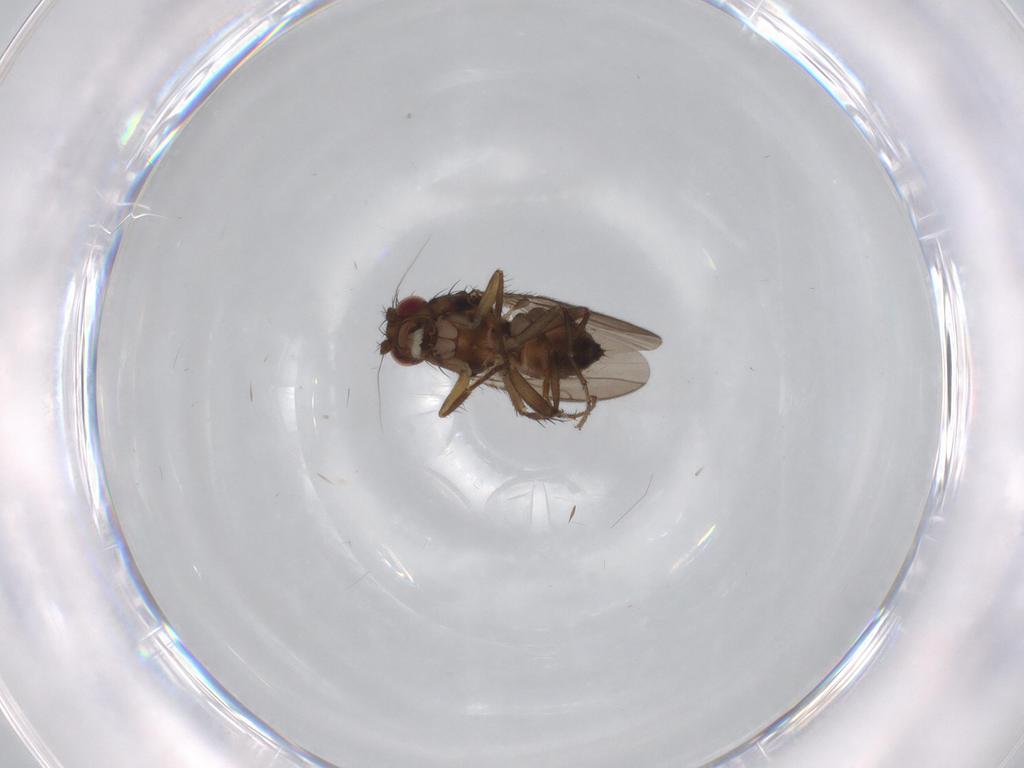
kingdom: Animalia
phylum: Arthropoda
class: Insecta
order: Diptera
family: Sphaeroceridae
